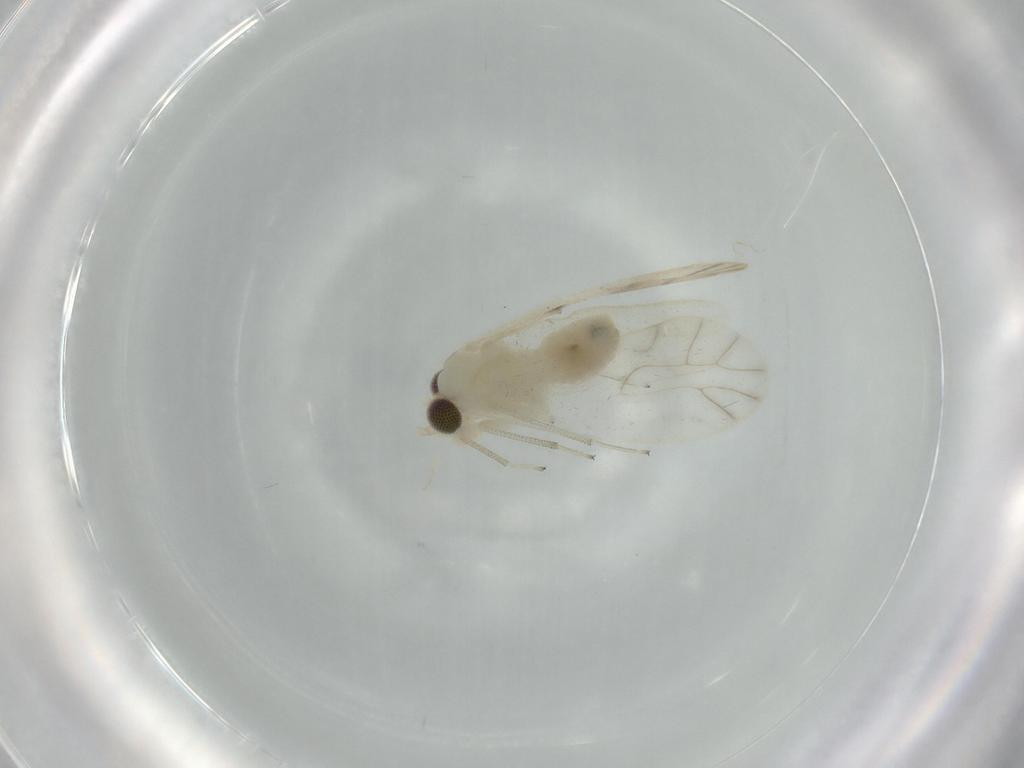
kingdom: Animalia
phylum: Arthropoda
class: Insecta
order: Psocodea
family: Caeciliusidae
